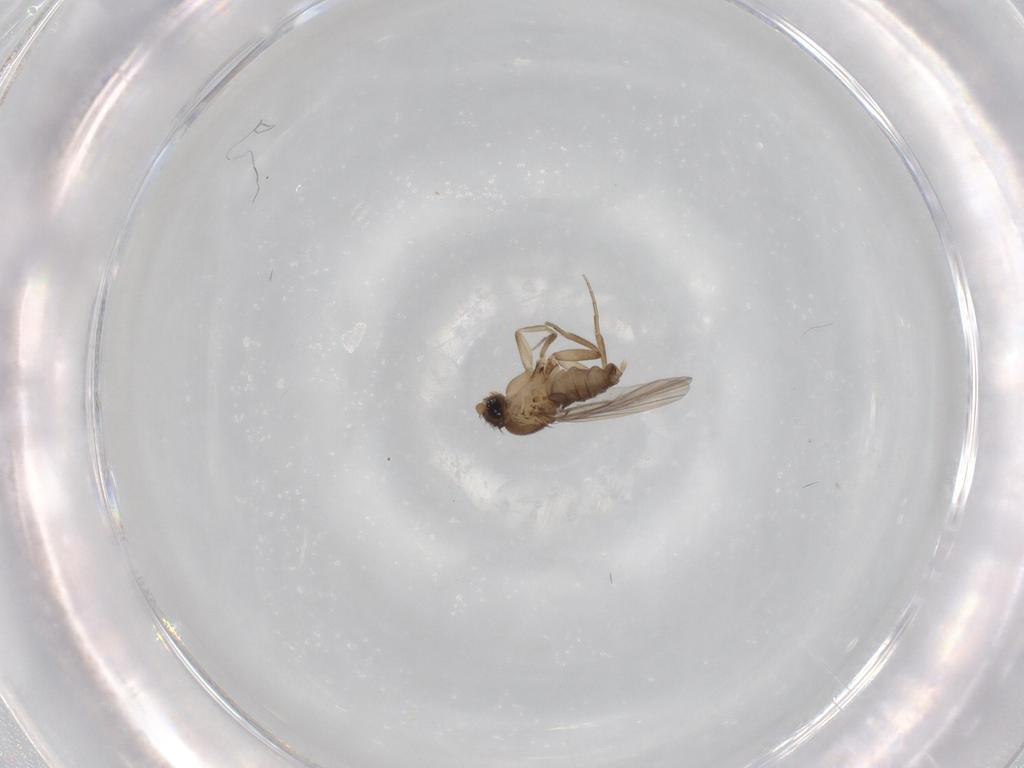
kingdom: Animalia
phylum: Arthropoda
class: Insecta
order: Diptera
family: Phoridae
